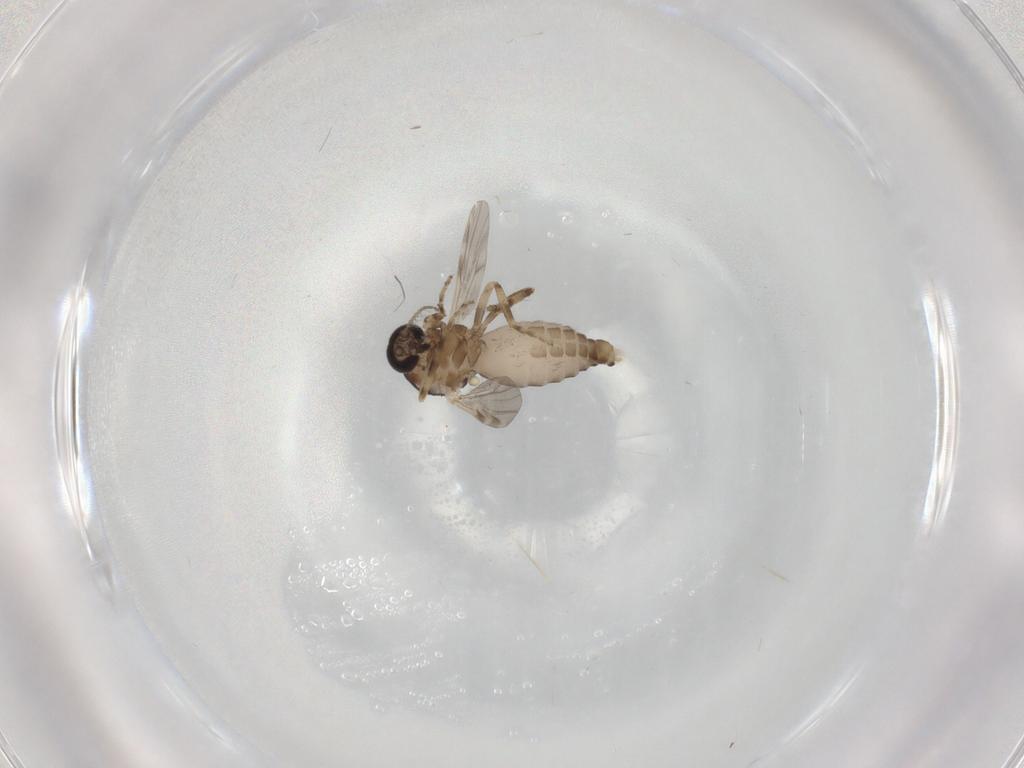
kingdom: Animalia
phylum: Arthropoda
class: Insecta
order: Diptera
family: Ceratopogonidae
